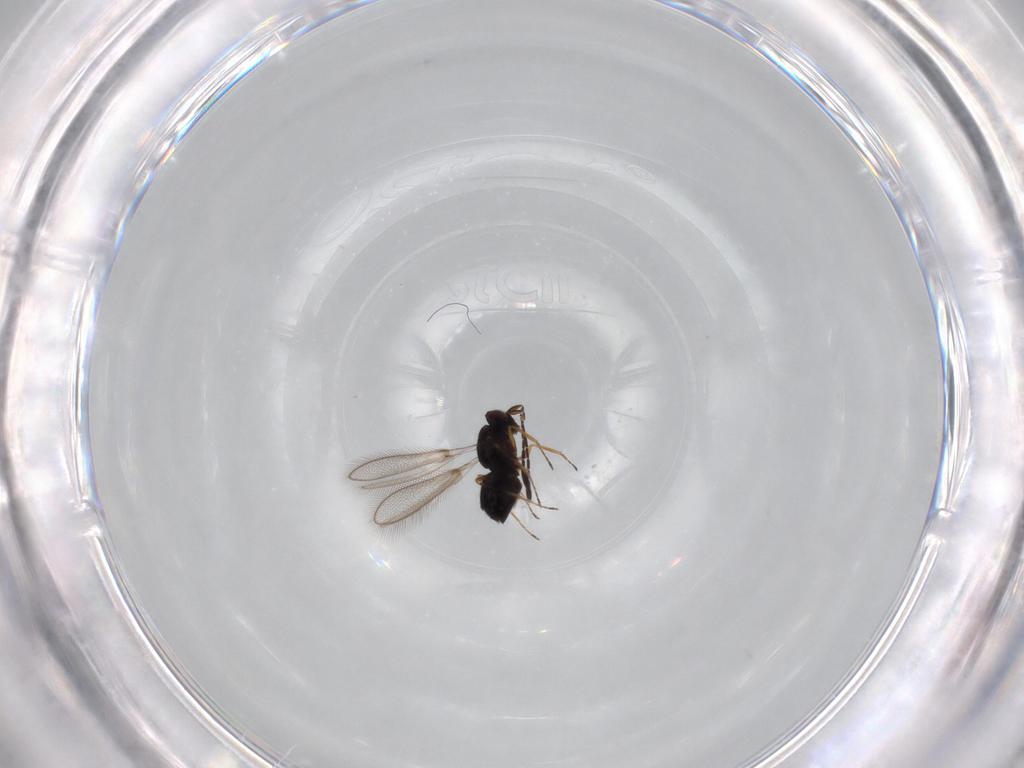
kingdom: Animalia
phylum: Arthropoda
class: Insecta
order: Hymenoptera
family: Mymaridae
